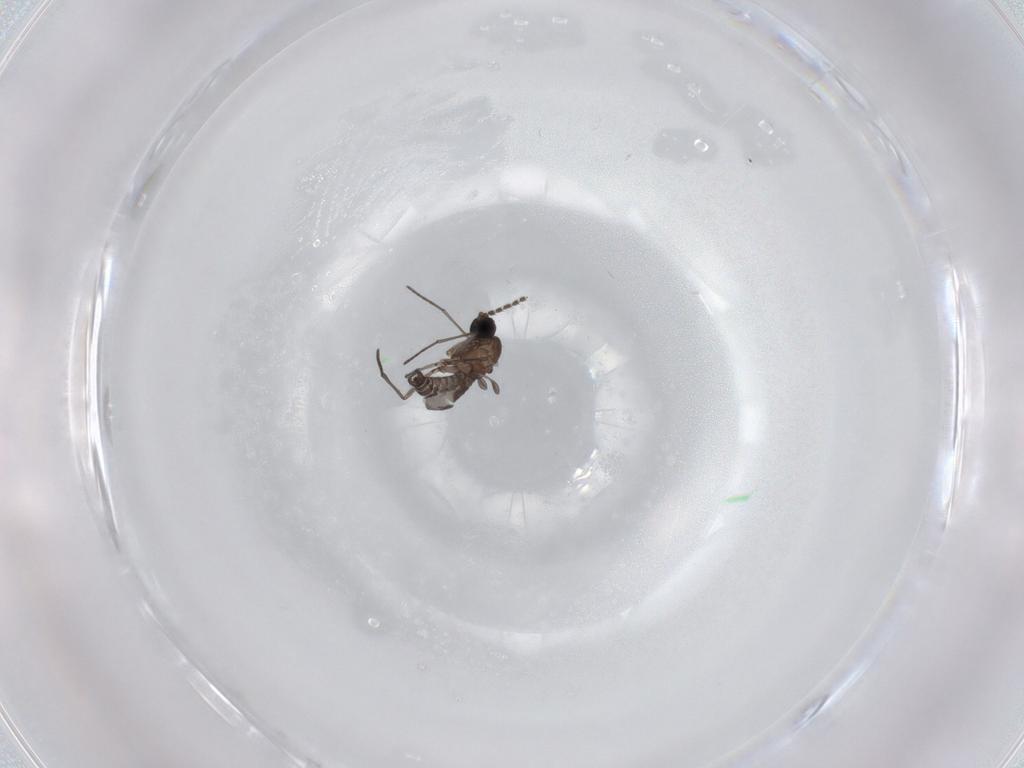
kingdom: Animalia
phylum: Arthropoda
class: Insecta
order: Diptera
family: Sciaridae
